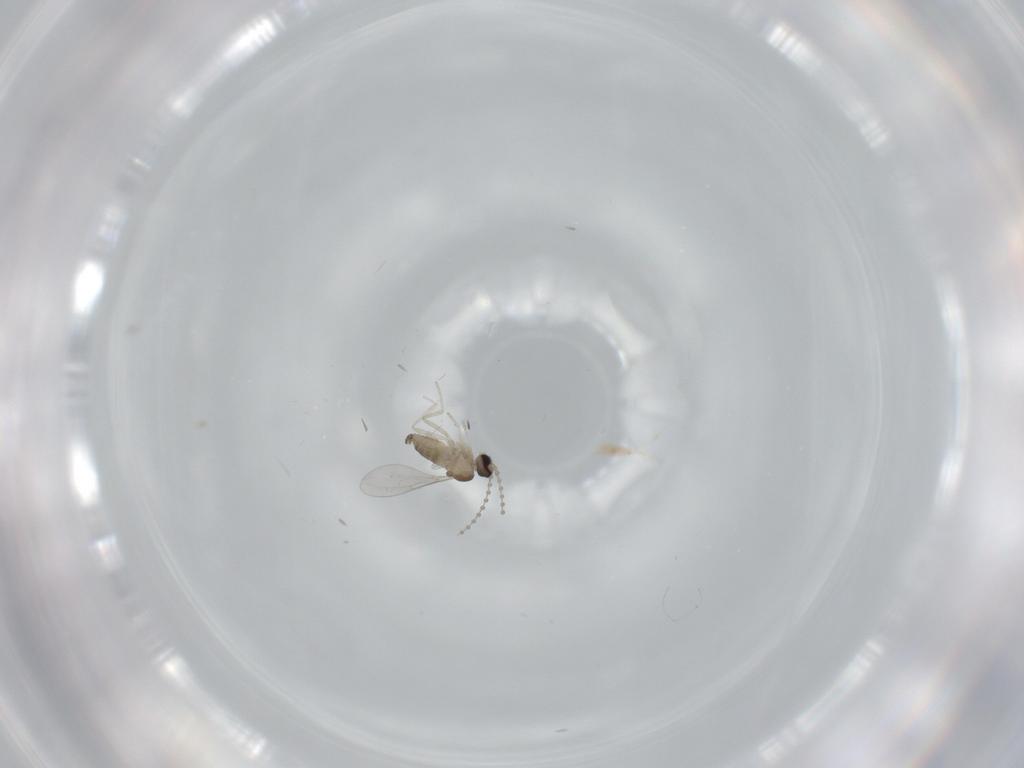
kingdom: Animalia
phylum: Arthropoda
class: Insecta
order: Diptera
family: Cecidomyiidae
